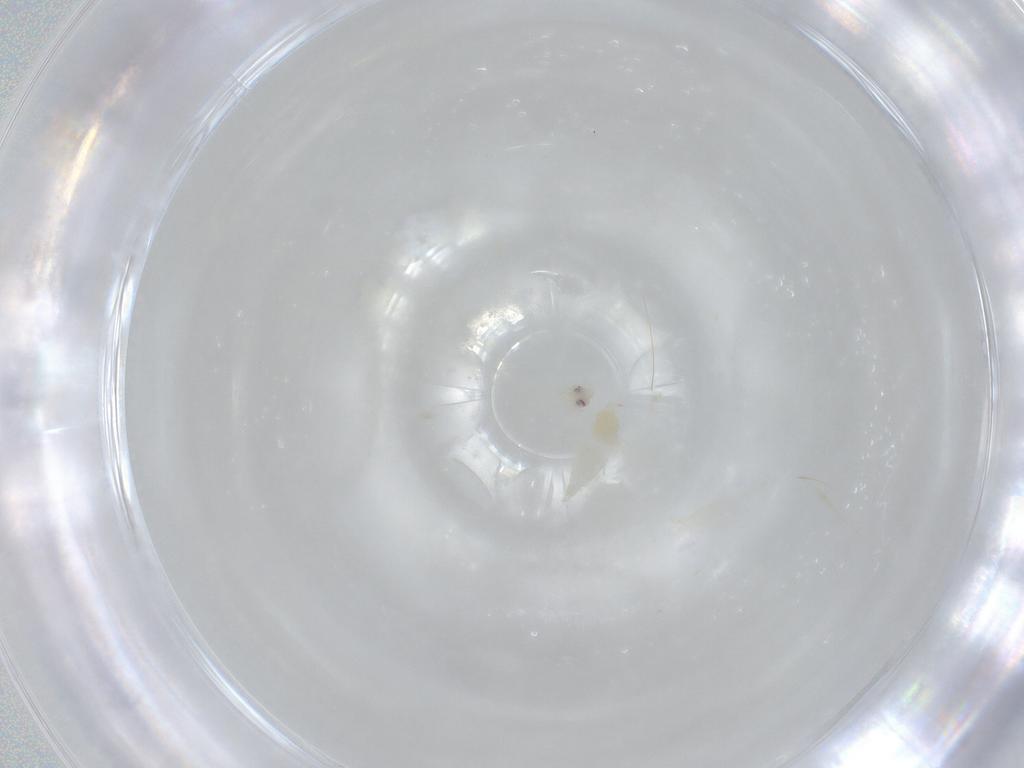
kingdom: Animalia
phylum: Arthropoda
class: Insecta
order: Hemiptera
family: Aleyrodidae
